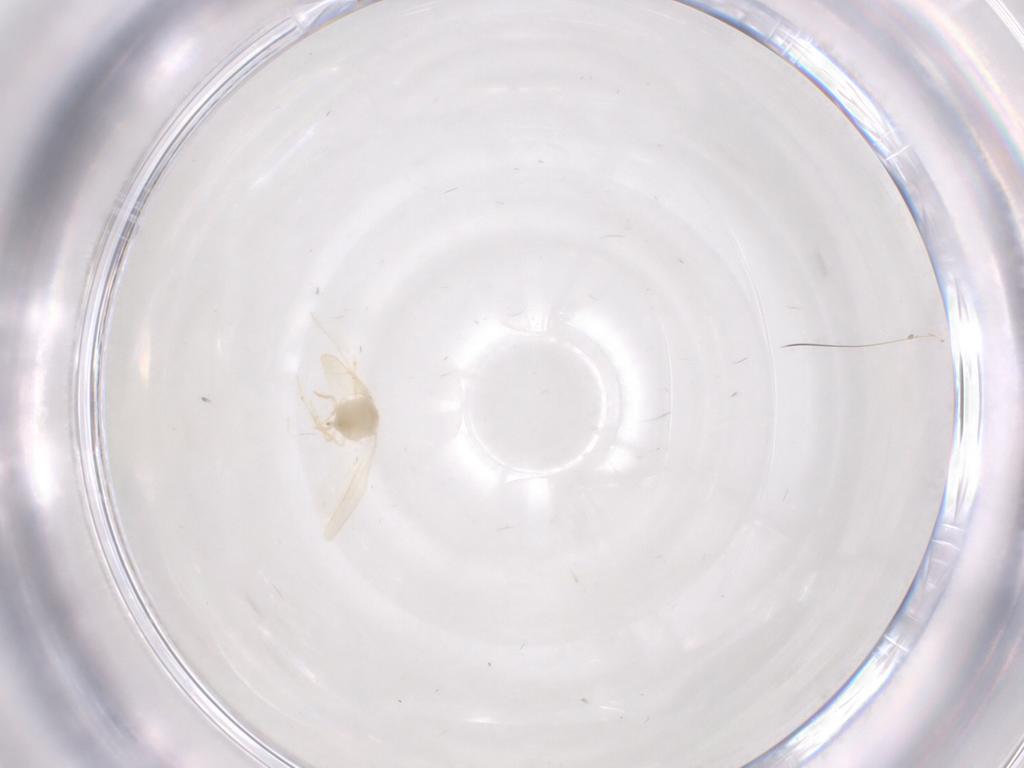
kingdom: Animalia
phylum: Arthropoda
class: Insecta
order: Hemiptera
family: Aleyrodidae
